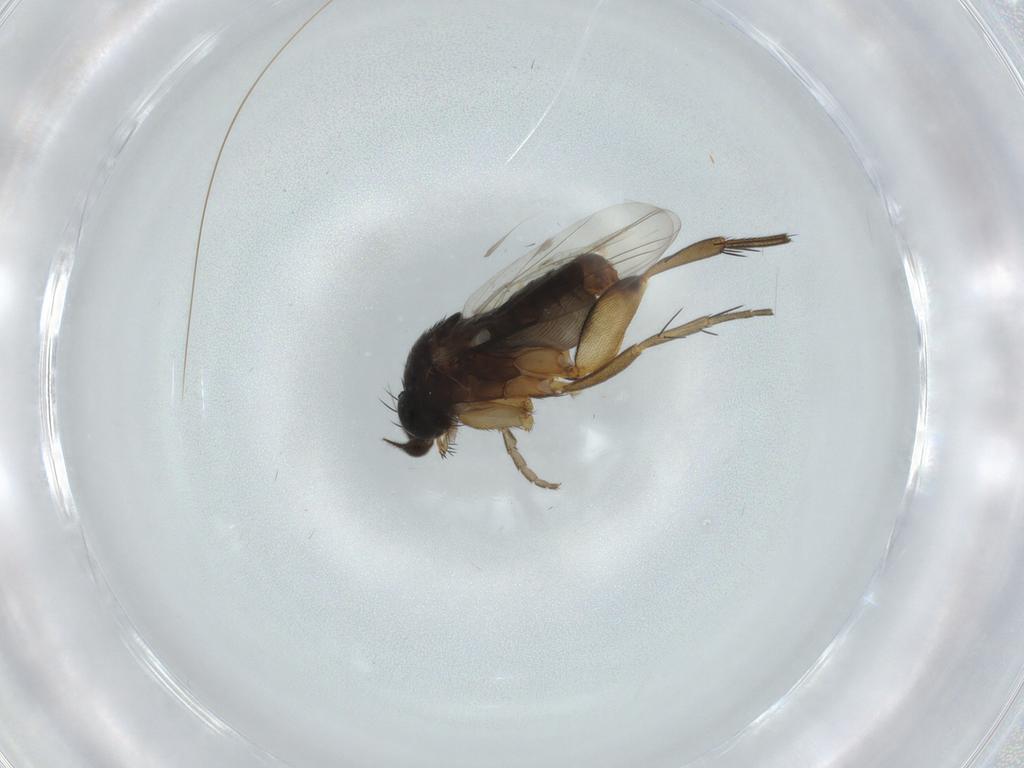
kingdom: Animalia
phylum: Arthropoda
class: Insecta
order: Diptera
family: Phoridae
